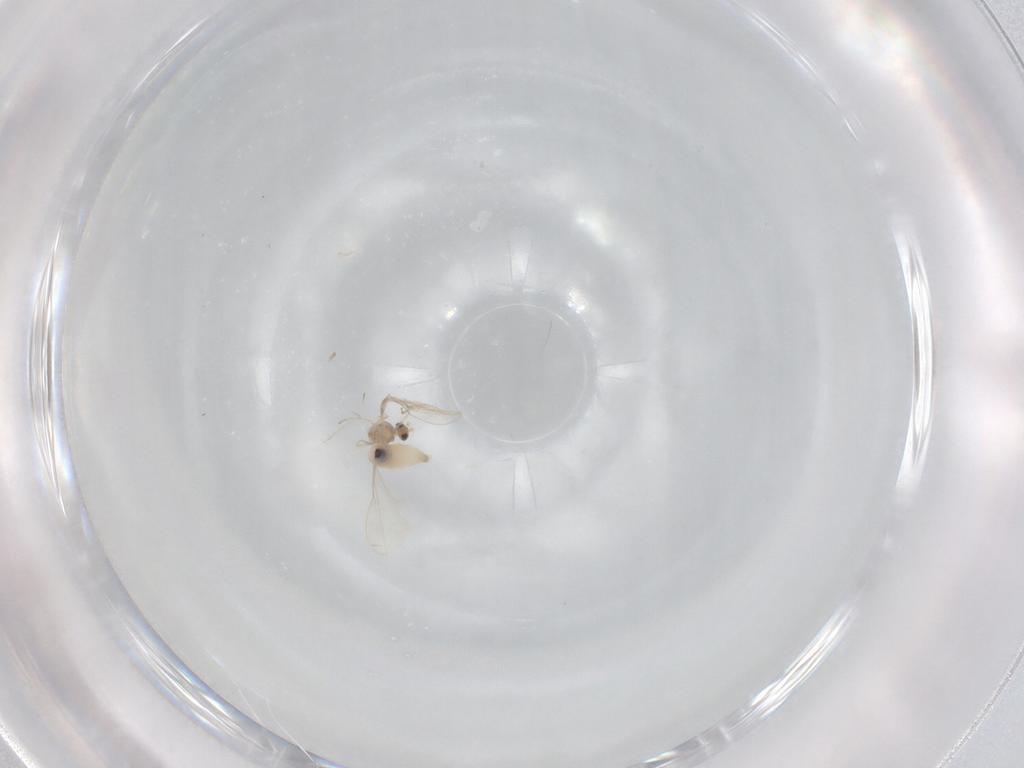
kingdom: Animalia
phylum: Arthropoda
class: Insecta
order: Diptera
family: Cecidomyiidae
